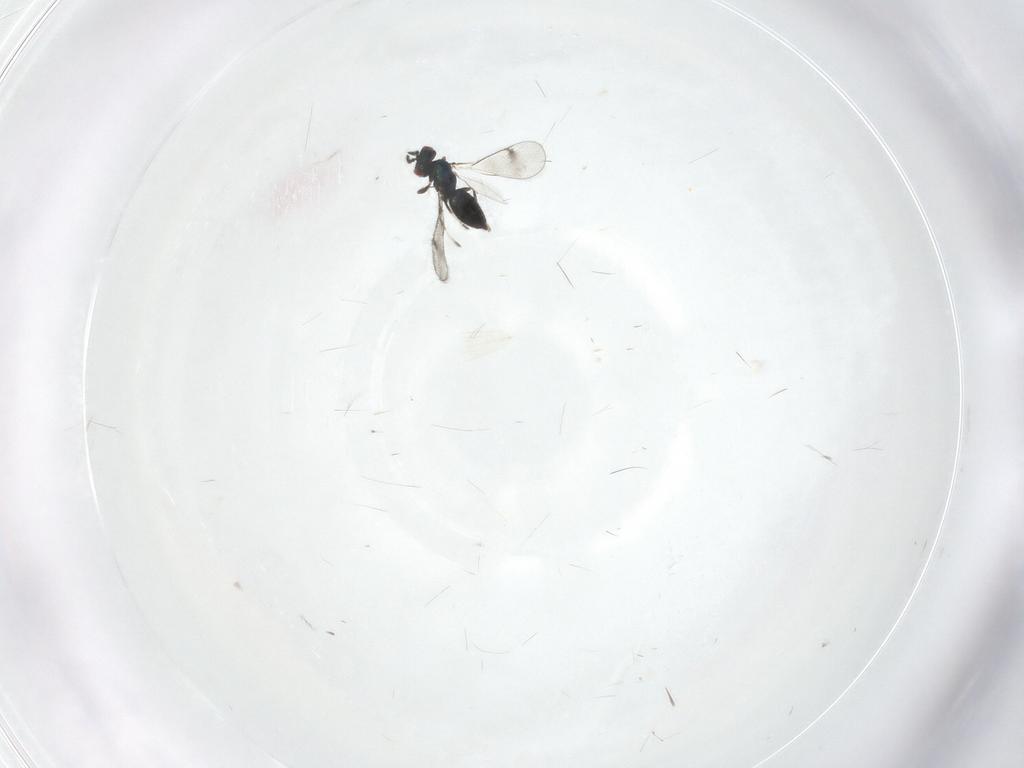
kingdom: Animalia
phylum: Arthropoda
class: Insecta
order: Hymenoptera
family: Eulophidae
